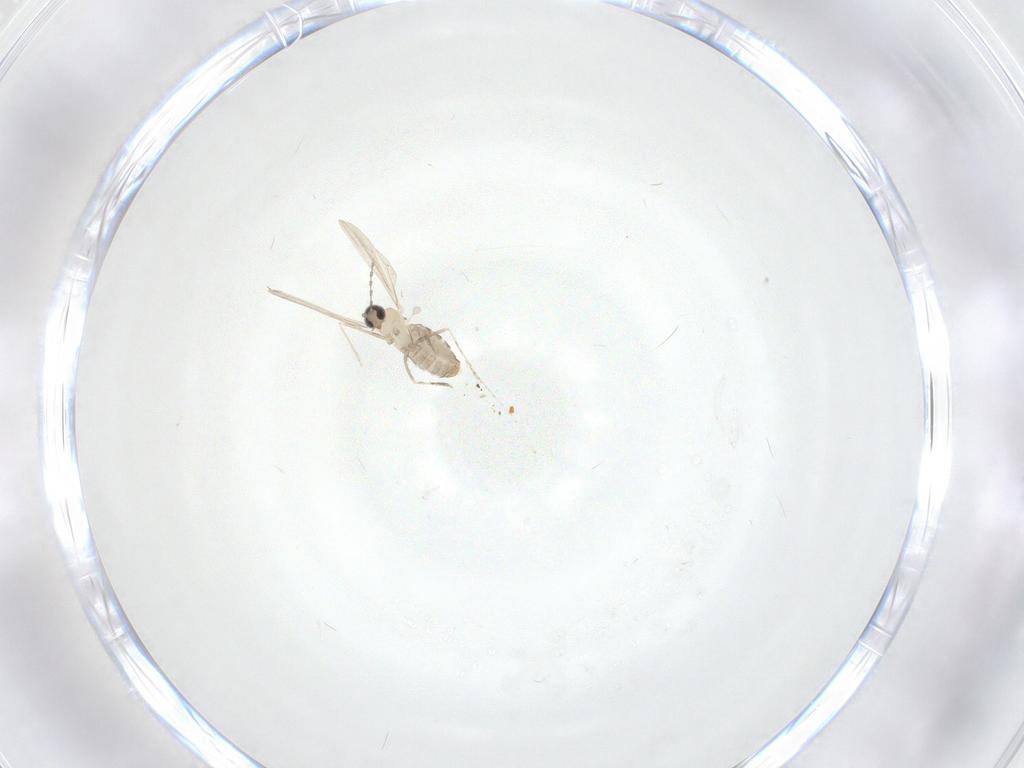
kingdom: Animalia
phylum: Arthropoda
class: Insecta
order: Diptera
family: Cecidomyiidae
